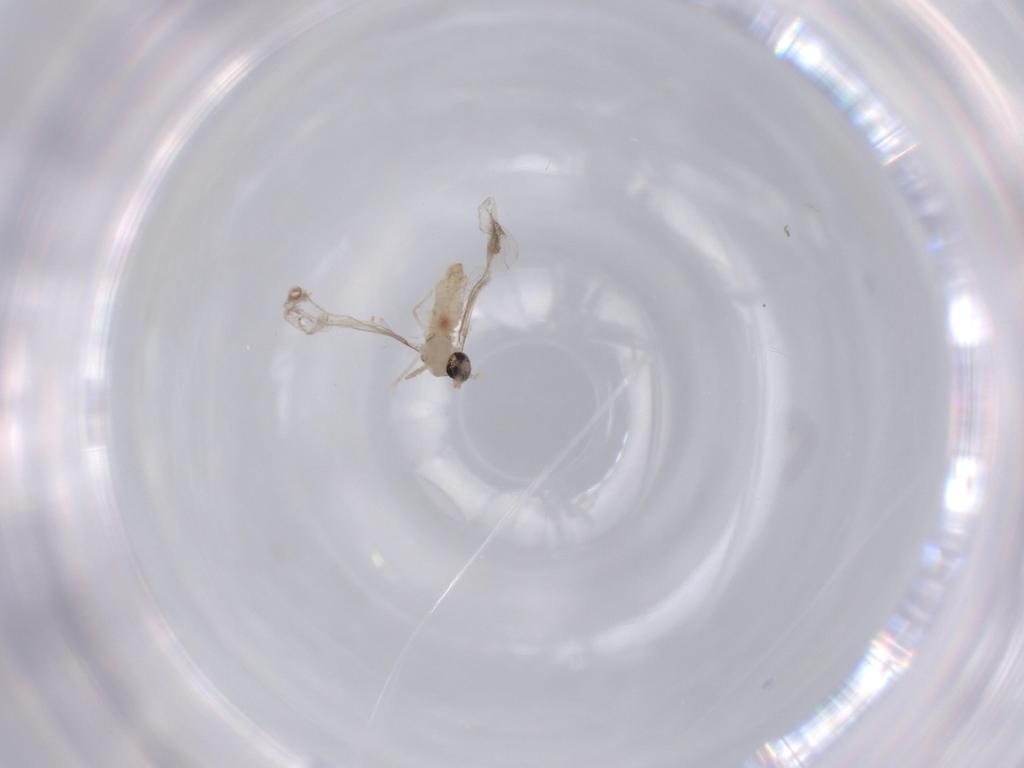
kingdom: Animalia
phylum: Arthropoda
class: Insecta
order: Diptera
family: Cecidomyiidae
